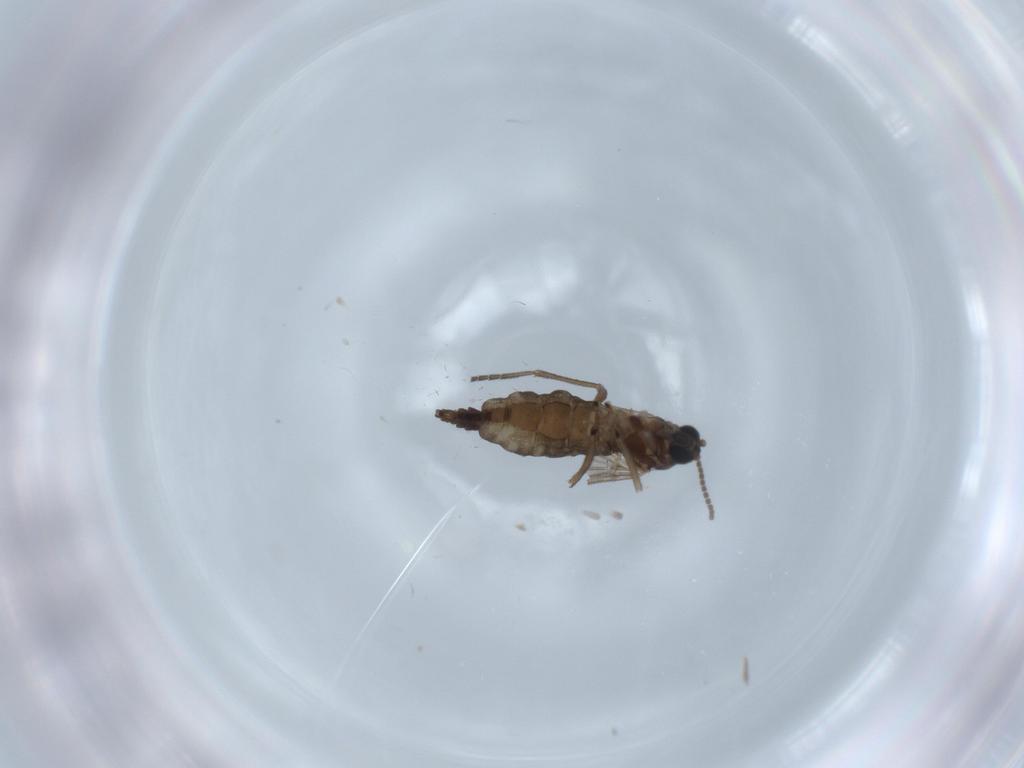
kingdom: Animalia
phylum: Arthropoda
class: Insecta
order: Diptera
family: Sciaridae
